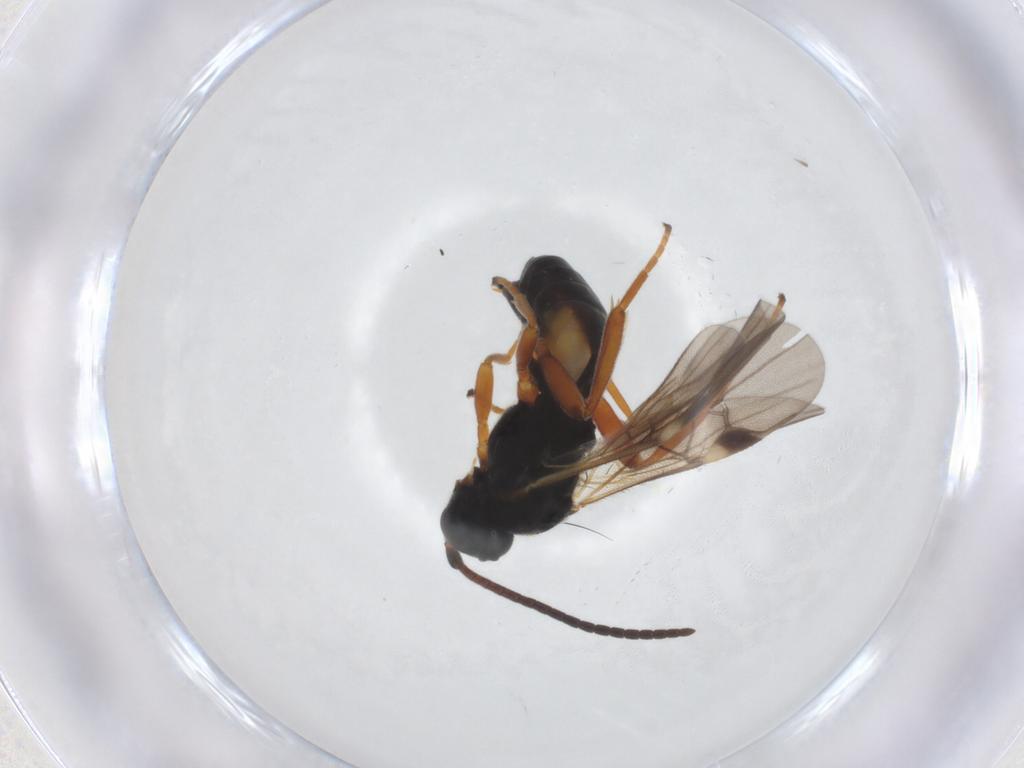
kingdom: Animalia
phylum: Arthropoda
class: Insecta
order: Hymenoptera
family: Braconidae
